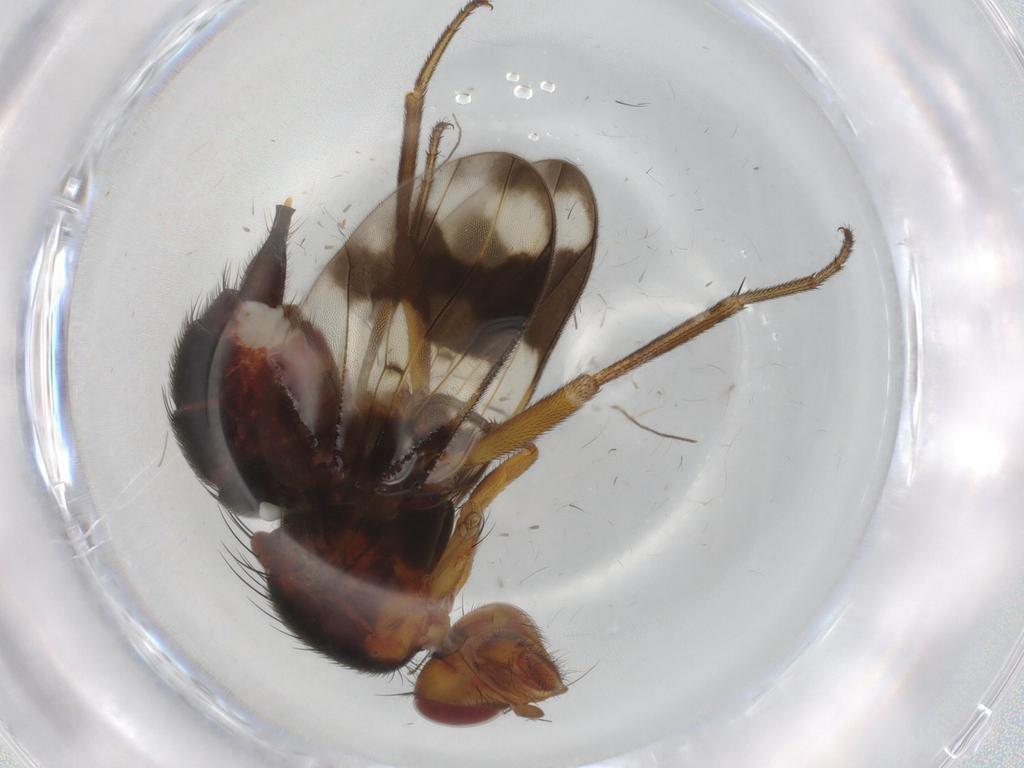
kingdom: Animalia
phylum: Arthropoda
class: Insecta
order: Diptera
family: Richardiidae
